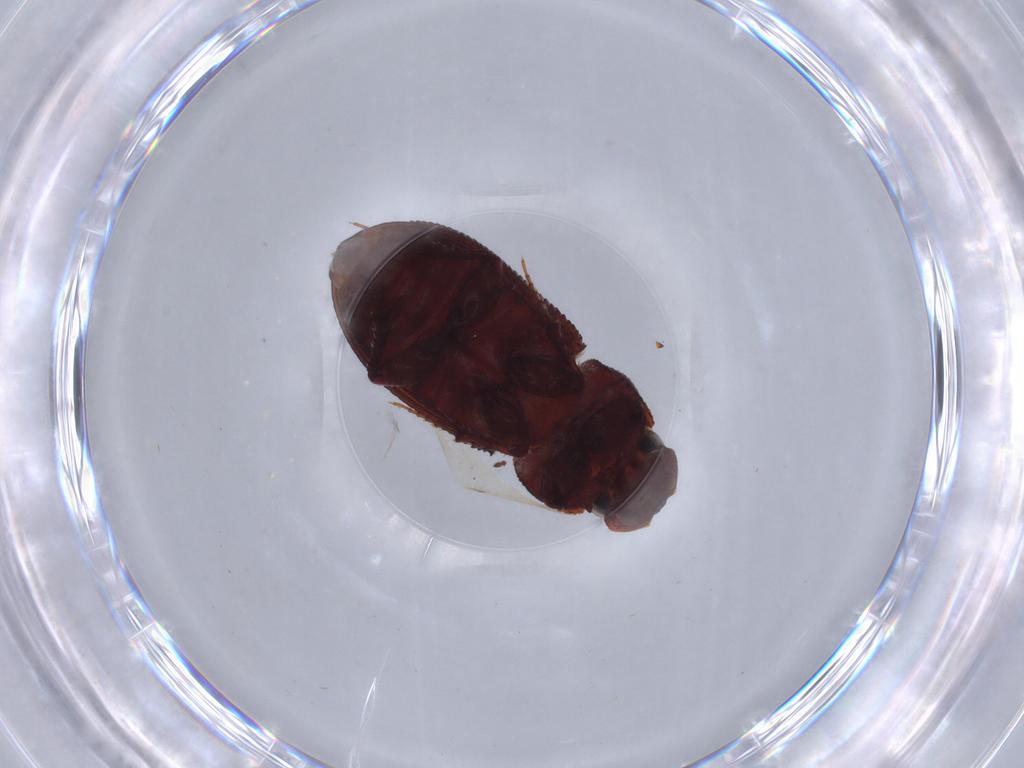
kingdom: Animalia
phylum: Arthropoda
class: Insecta
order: Coleoptera
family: Scarabaeidae
